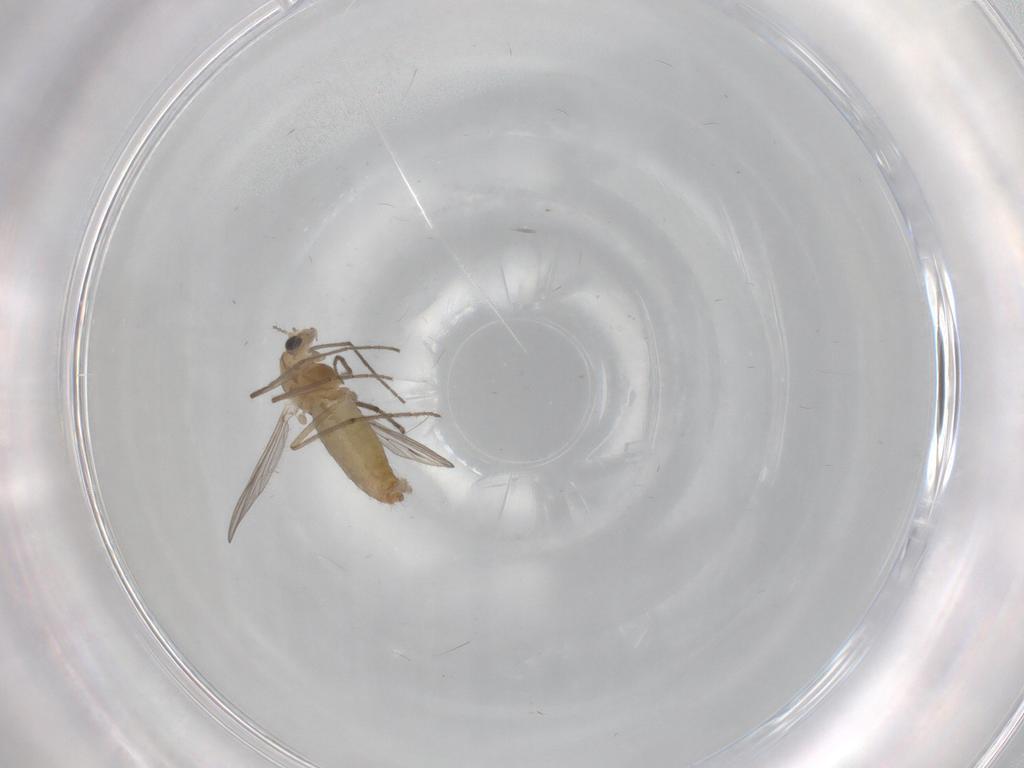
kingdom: Animalia
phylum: Arthropoda
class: Insecta
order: Diptera
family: Chironomidae
